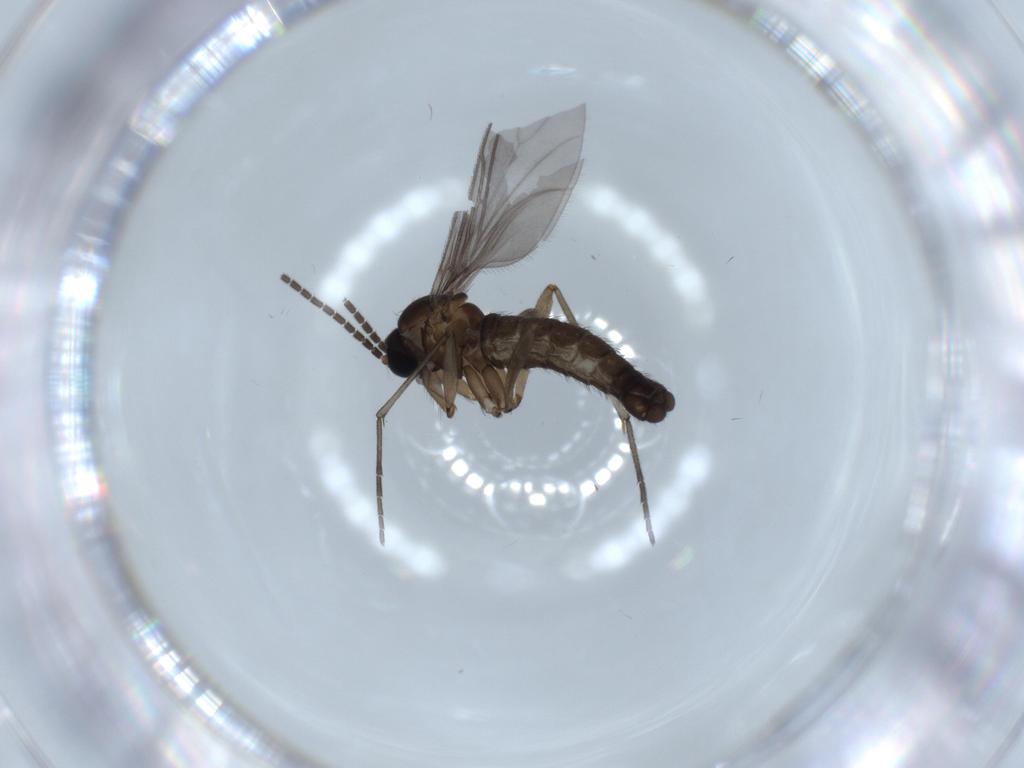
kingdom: Animalia
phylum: Arthropoda
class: Insecta
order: Diptera
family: Sciaridae
